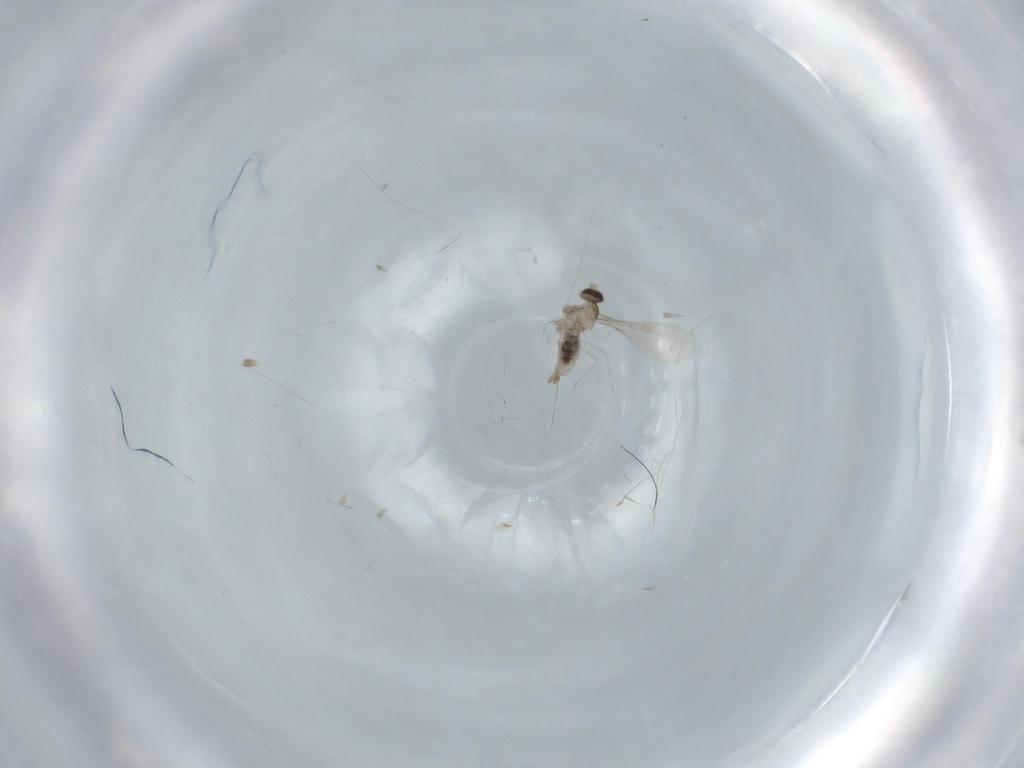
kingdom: Animalia
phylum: Arthropoda
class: Insecta
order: Diptera
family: Cecidomyiidae
